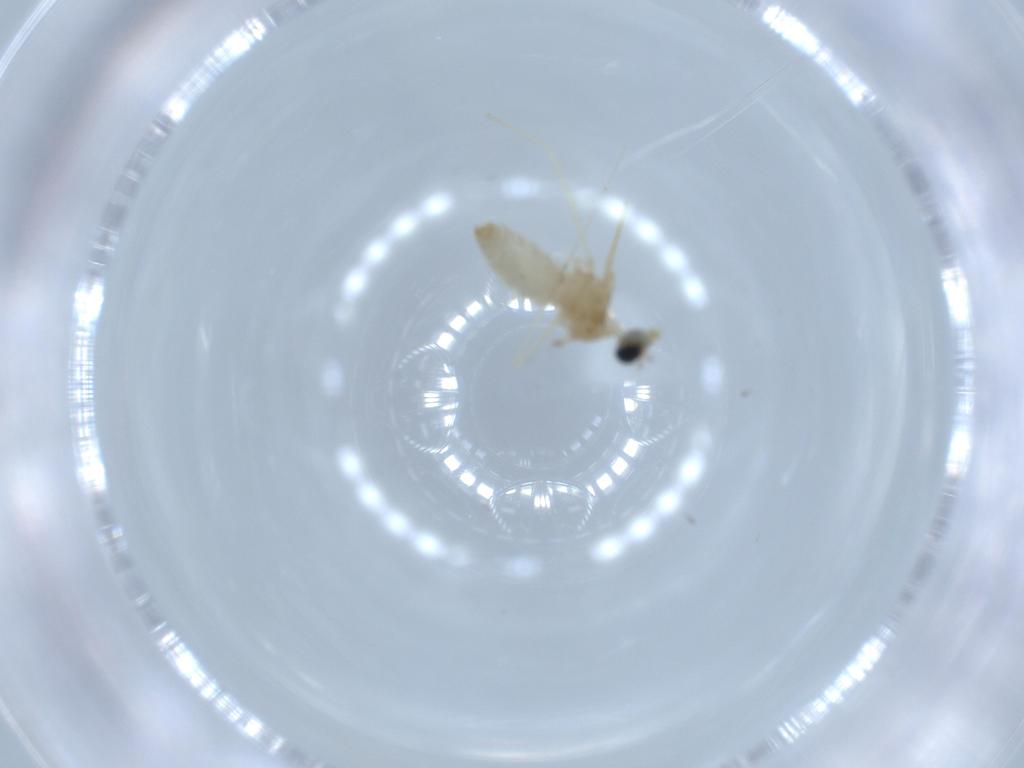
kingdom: Animalia
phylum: Arthropoda
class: Insecta
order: Diptera
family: Cecidomyiidae
